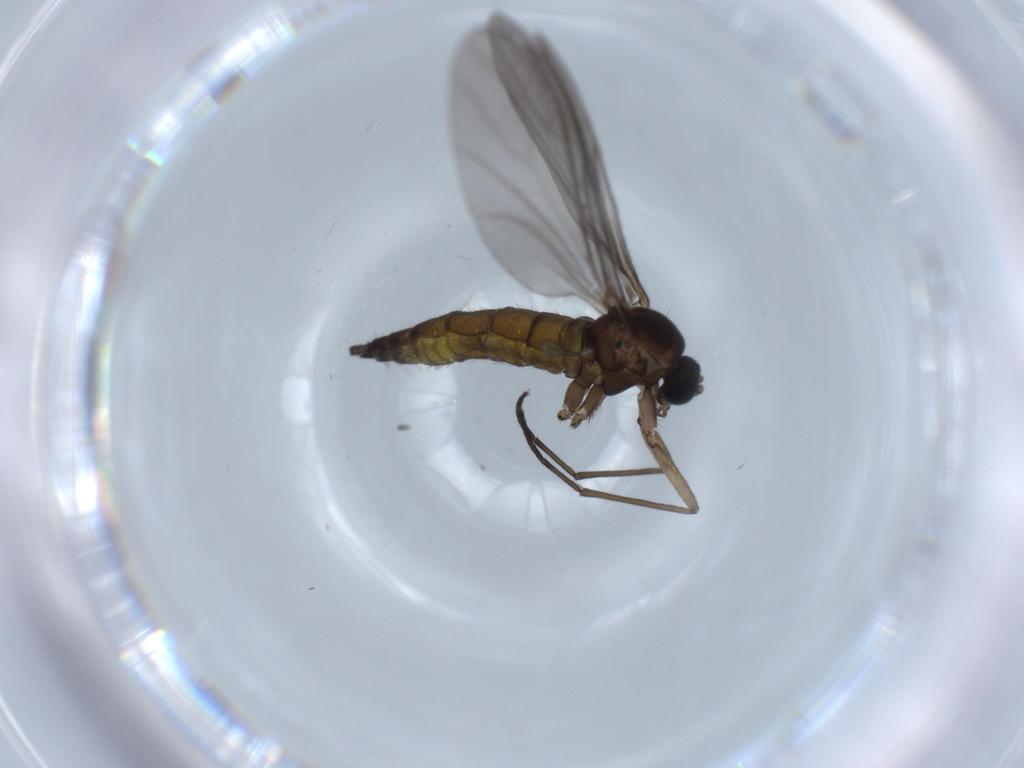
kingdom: Animalia
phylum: Arthropoda
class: Insecta
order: Diptera
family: Sciaridae
